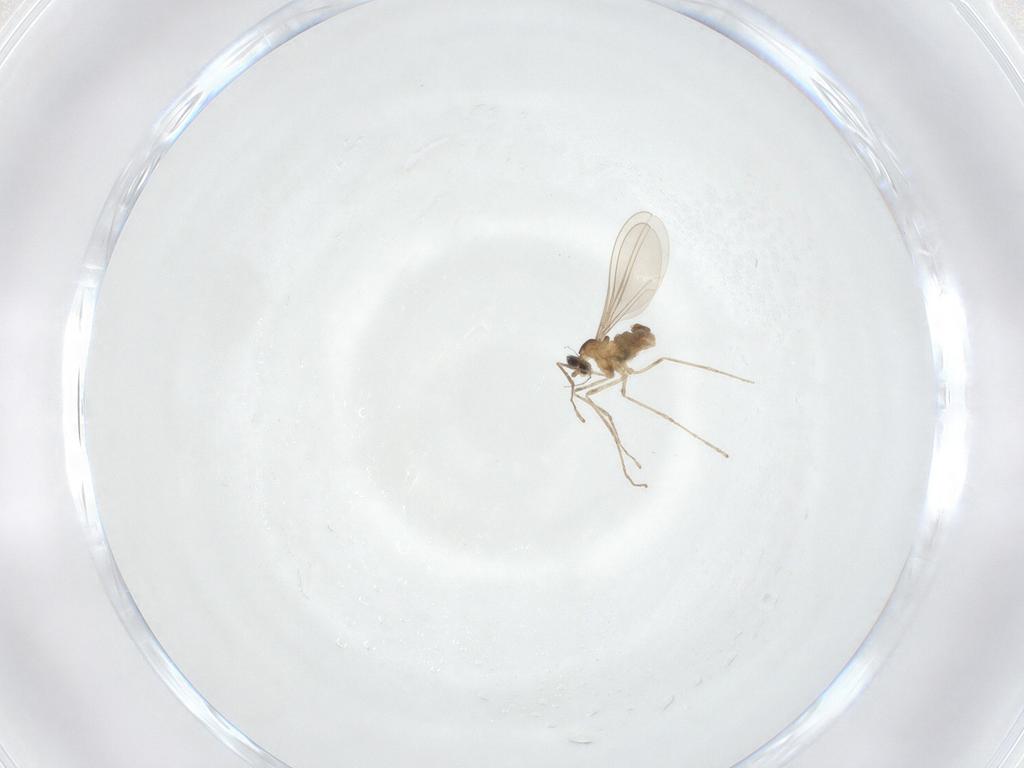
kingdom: Animalia
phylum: Arthropoda
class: Insecta
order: Diptera
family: Cecidomyiidae
